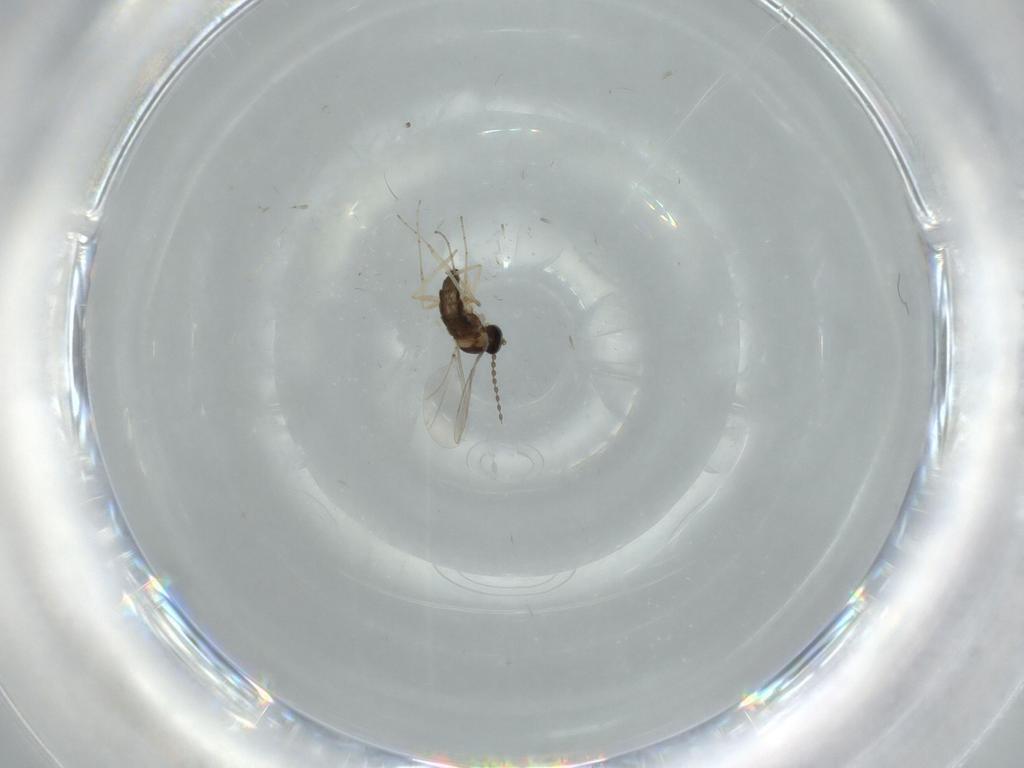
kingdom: Animalia
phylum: Arthropoda
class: Insecta
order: Diptera
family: Cecidomyiidae
